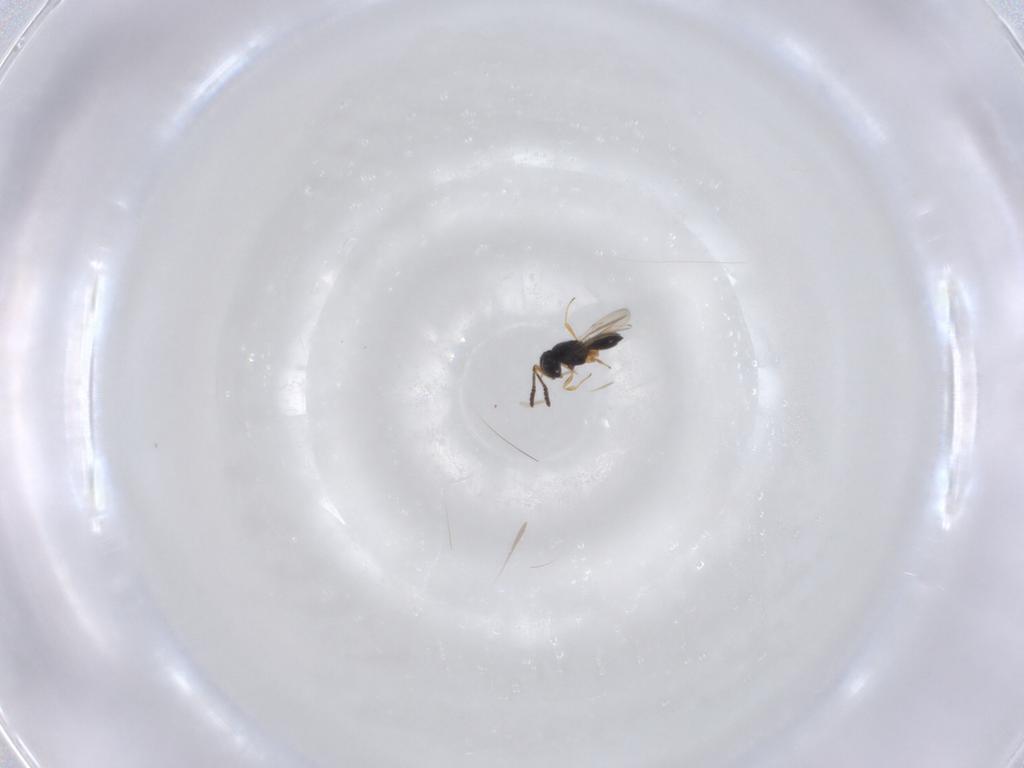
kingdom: Animalia
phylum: Arthropoda
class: Insecta
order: Hymenoptera
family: Scelionidae
